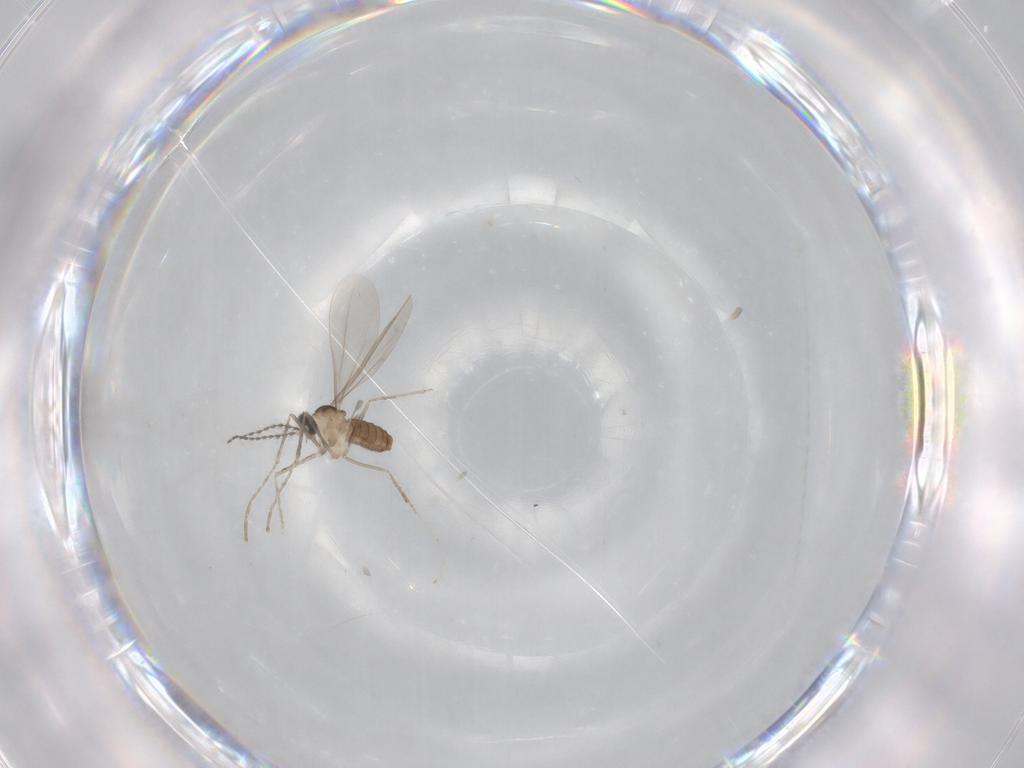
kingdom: Animalia
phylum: Arthropoda
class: Insecta
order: Diptera
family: Cecidomyiidae
